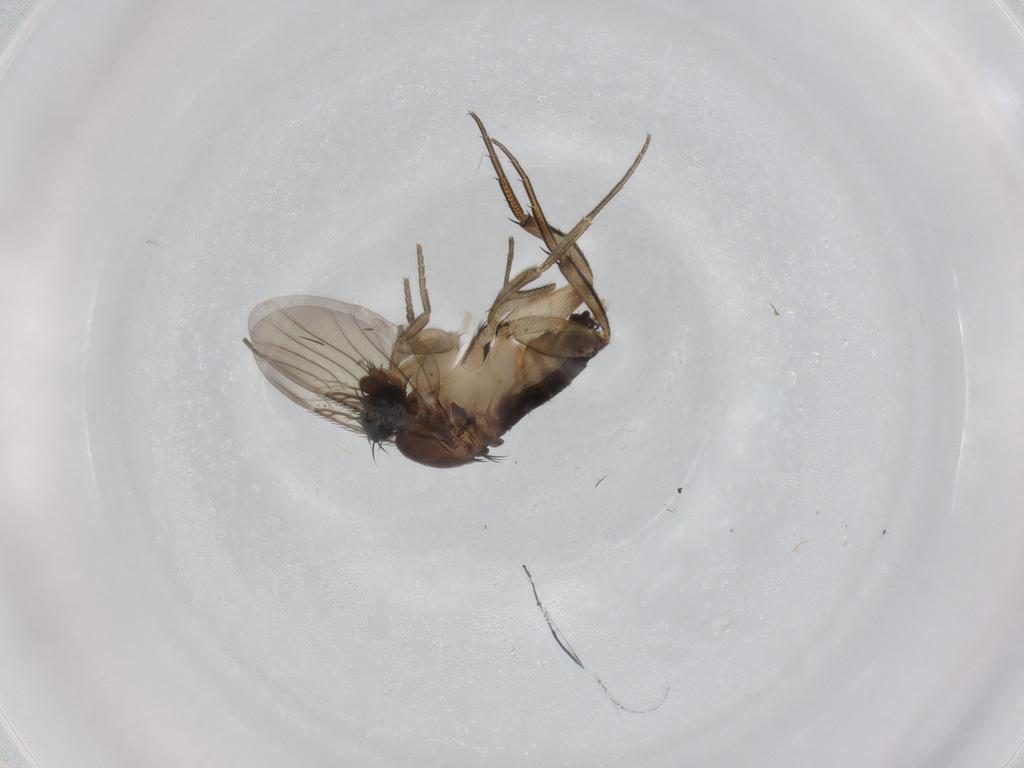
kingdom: Animalia
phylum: Arthropoda
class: Insecta
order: Diptera
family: Phoridae
